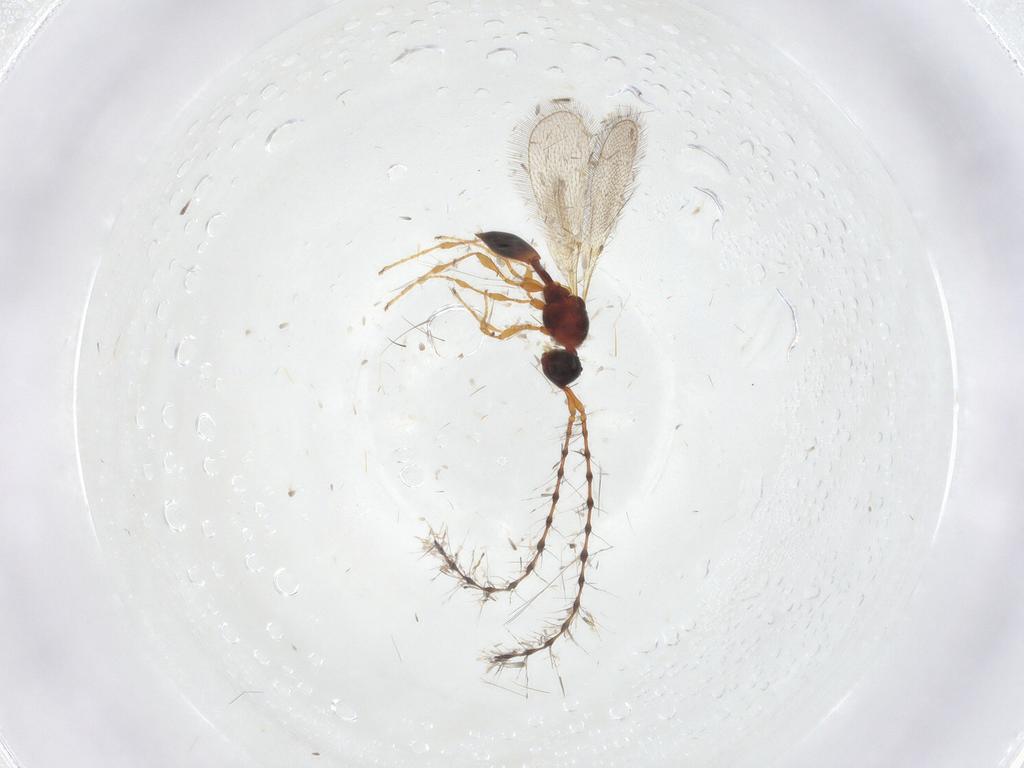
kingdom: Animalia
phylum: Arthropoda
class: Insecta
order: Hymenoptera
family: Diapriidae
